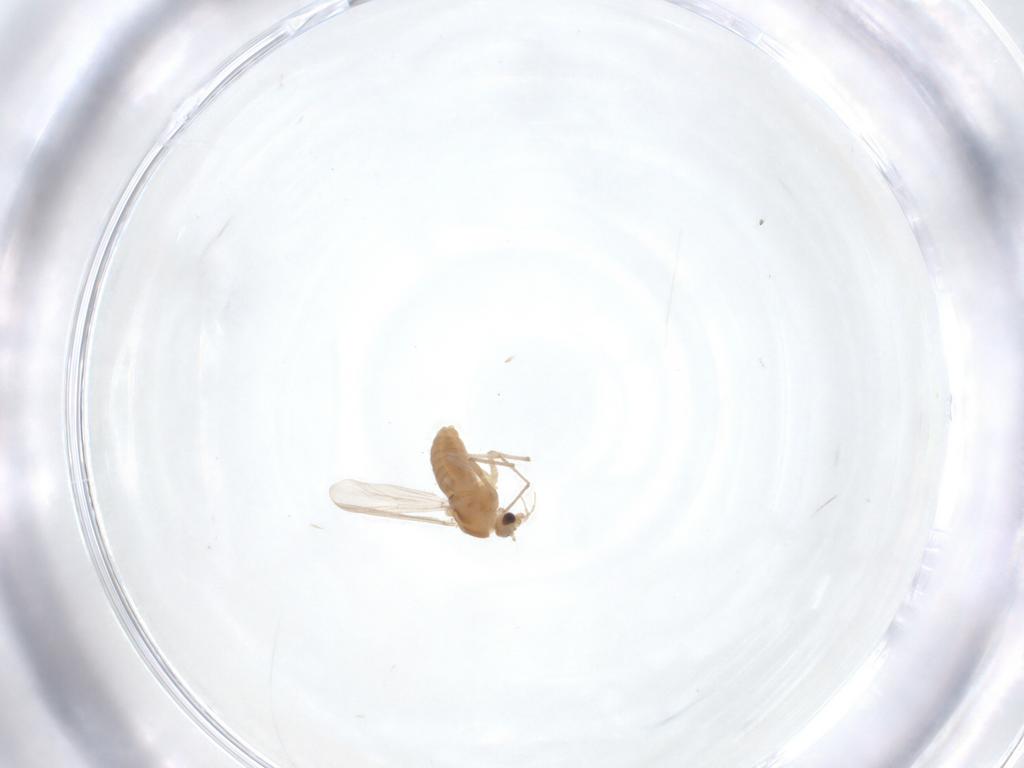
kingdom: Animalia
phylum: Arthropoda
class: Insecta
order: Diptera
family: Chironomidae
